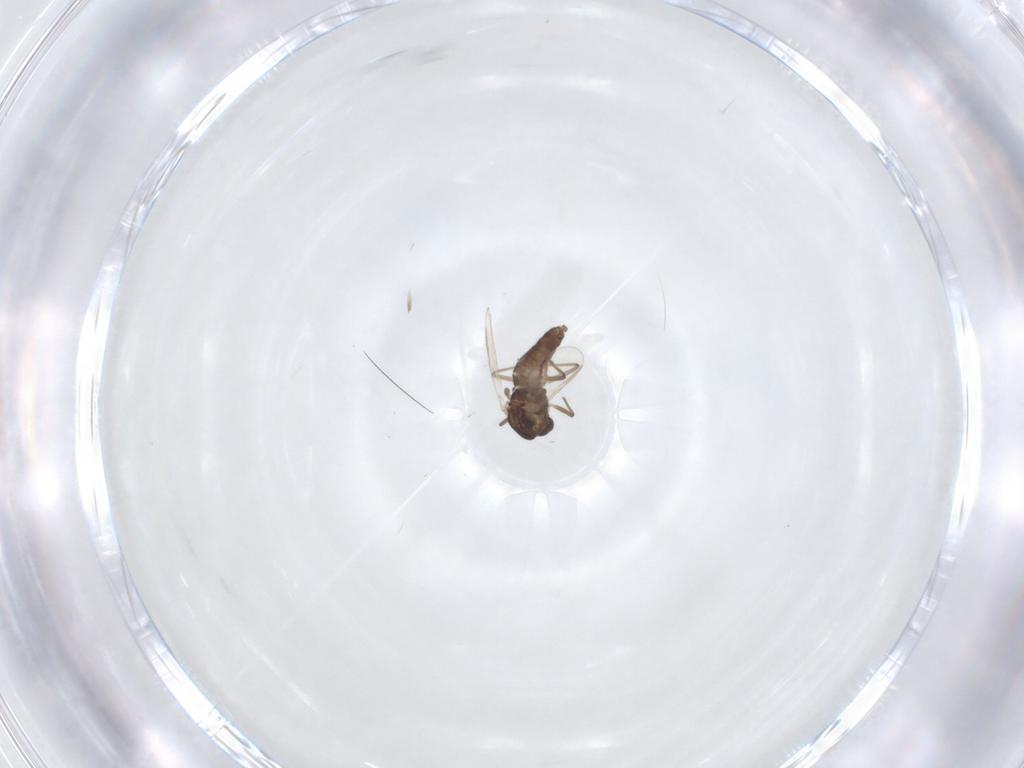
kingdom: Animalia
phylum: Arthropoda
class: Insecta
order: Diptera
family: Chironomidae
